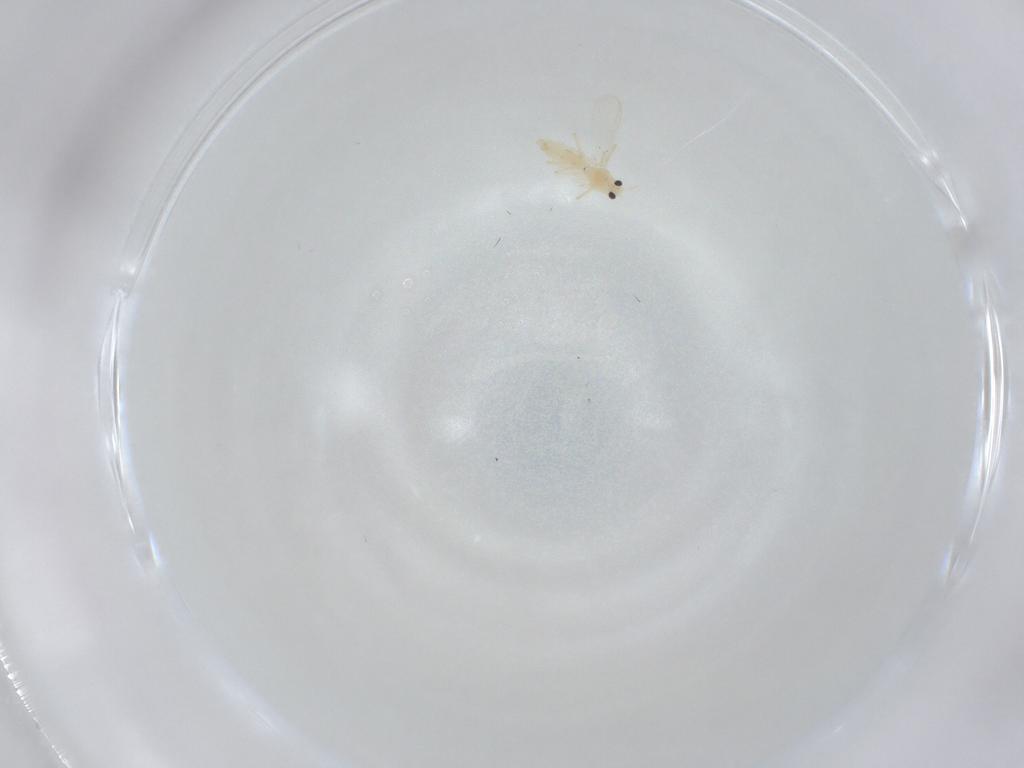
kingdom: Animalia
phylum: Arthropoda
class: Insecta
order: Diptera
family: Chironomidae
